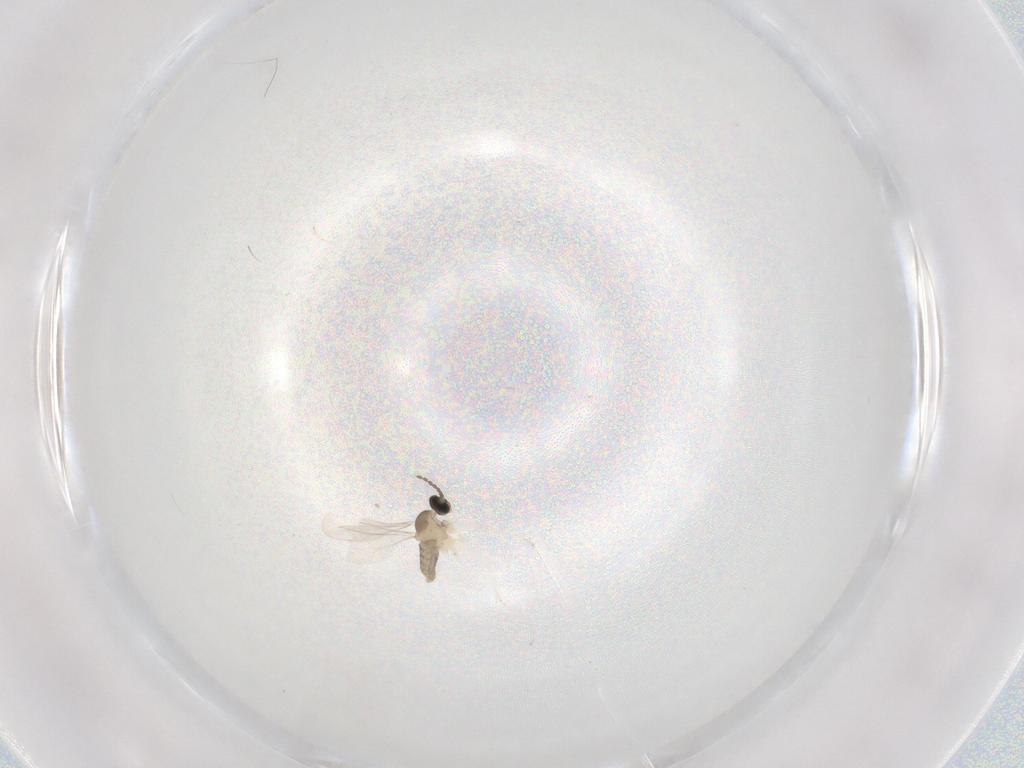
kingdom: Animalia
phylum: Arthropoda
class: Insecta
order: Diptera
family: Cecidomyiidae
